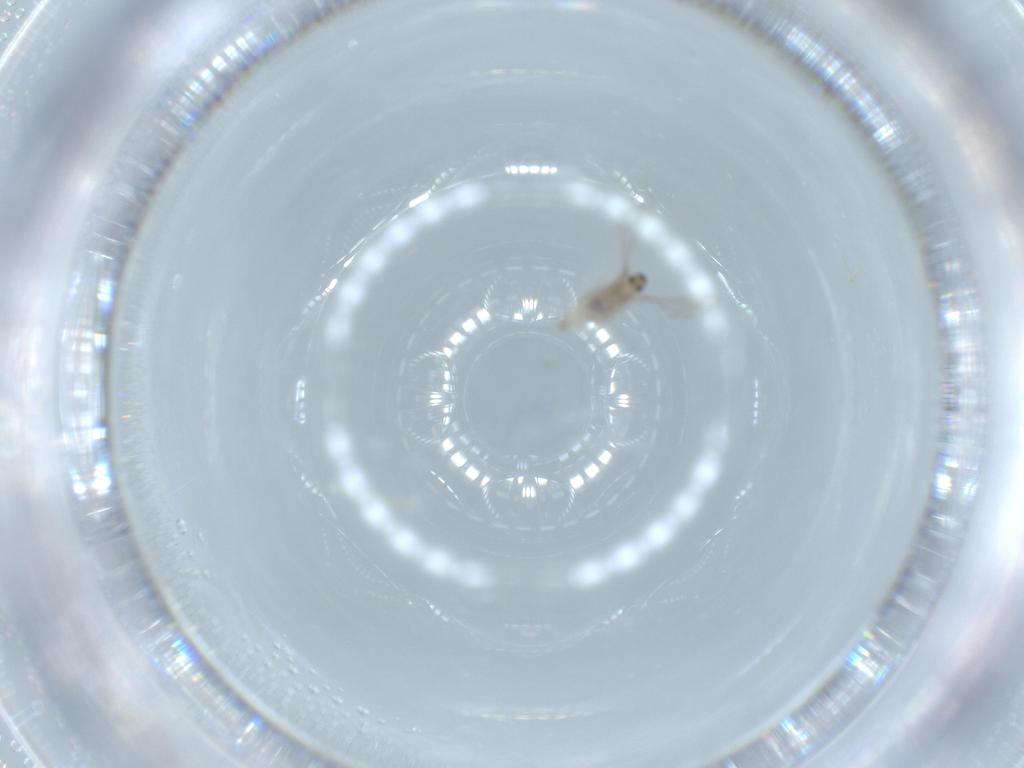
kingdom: Animalia
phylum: Arthropoda
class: Insecta
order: Diptera
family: Cecidomyiidae
